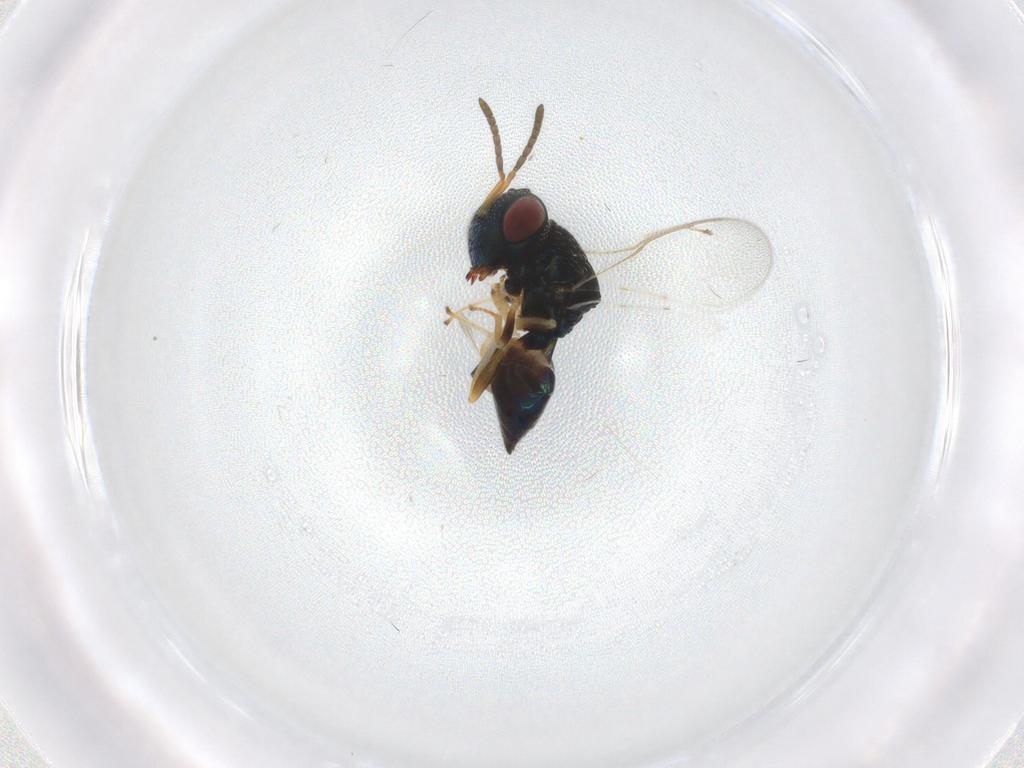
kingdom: Animalia
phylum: Arthropoda
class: Insecta
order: Hymenoptera
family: Eupelmidae
